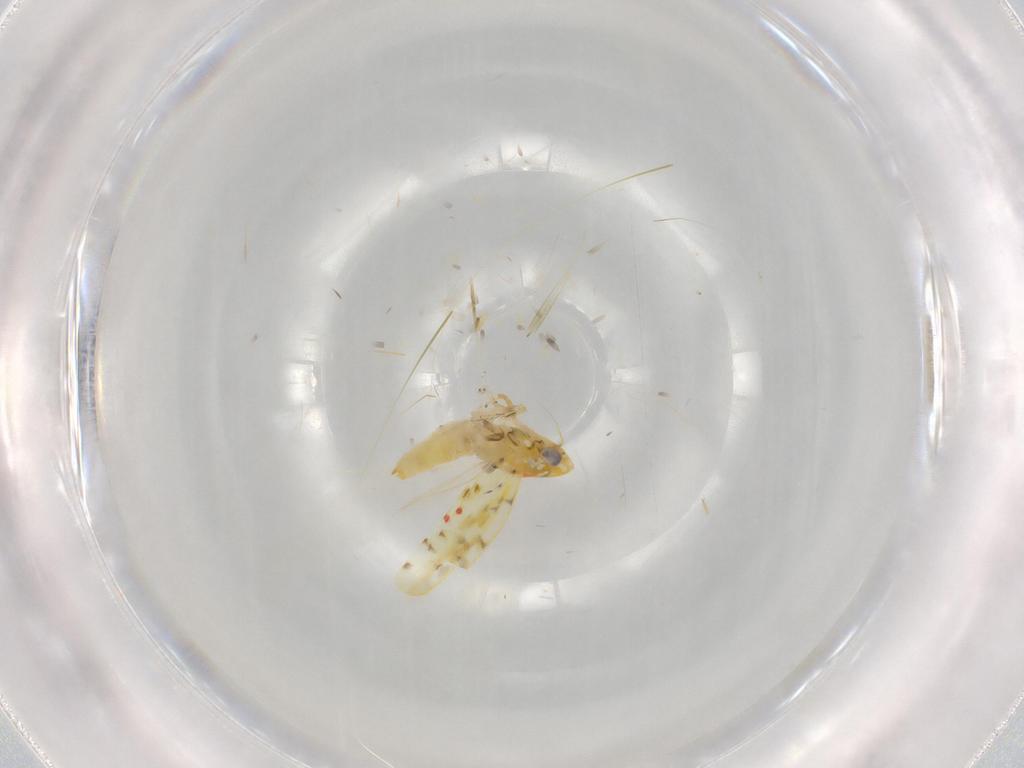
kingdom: Animalia
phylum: Arthropoda
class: Insecta
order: Hemiptera
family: Cicadellidae
